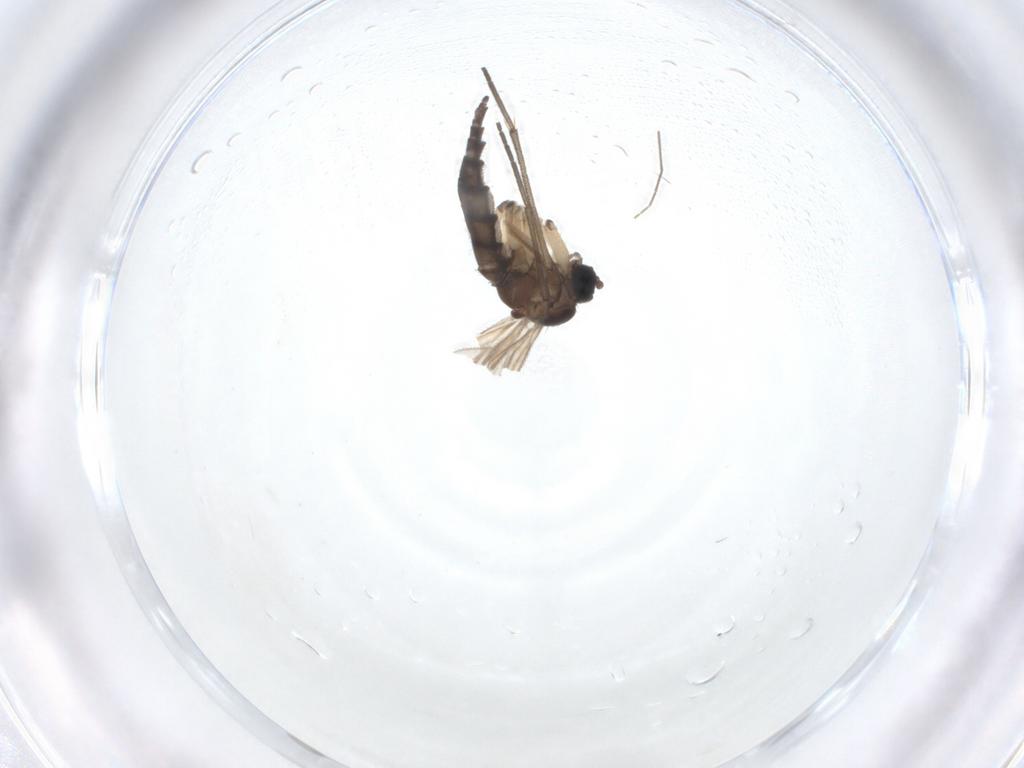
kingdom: Animalia
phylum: Arthropoda
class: Insecta
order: Diptera
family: Sciaridae
